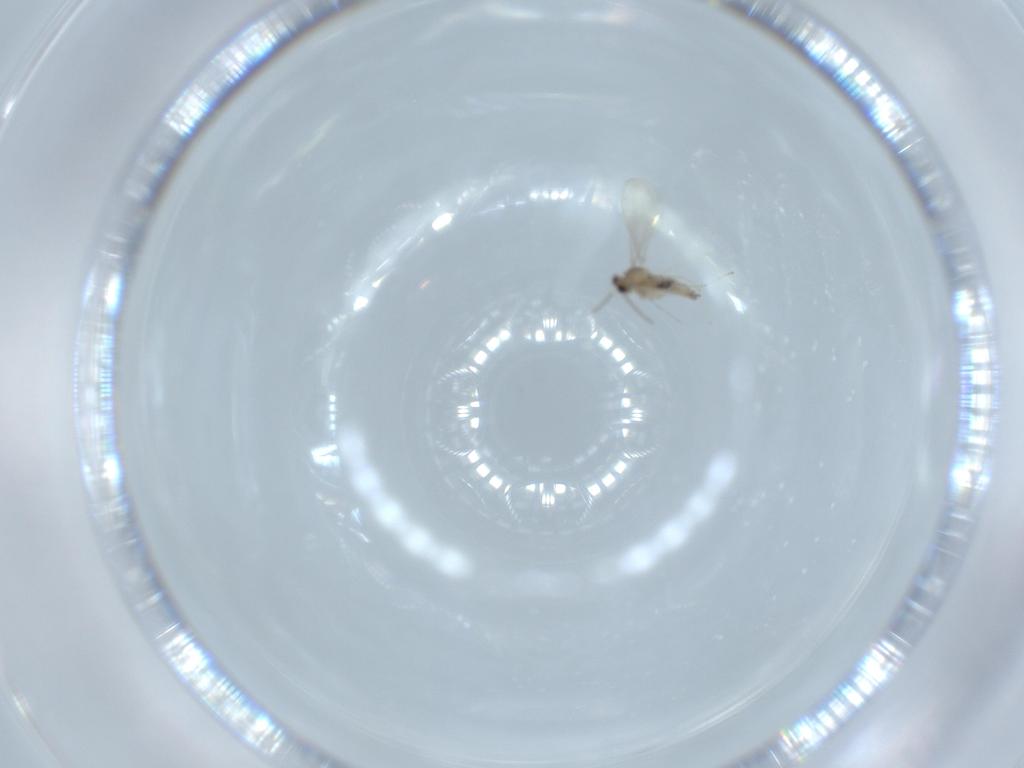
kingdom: Animalia
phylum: Arthropoda
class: Insecta
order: Diptera
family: Cecidomyiidae
